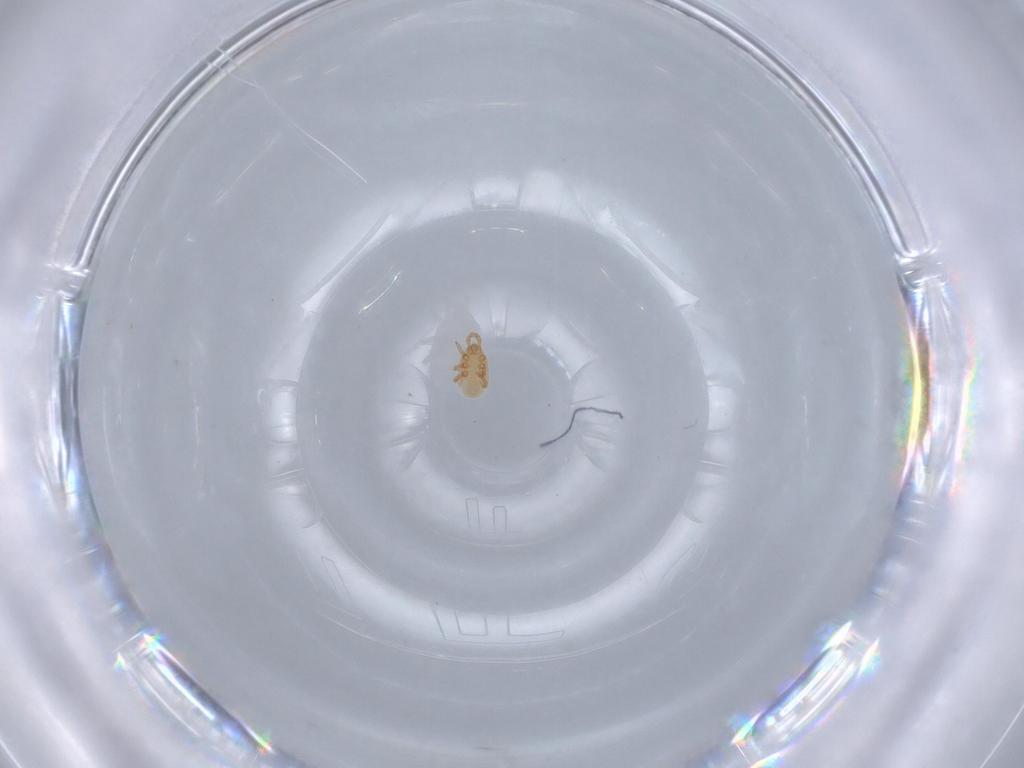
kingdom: Animalia
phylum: Arthropoda
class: Arachnida
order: Mesostigmata
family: Dinychidae
